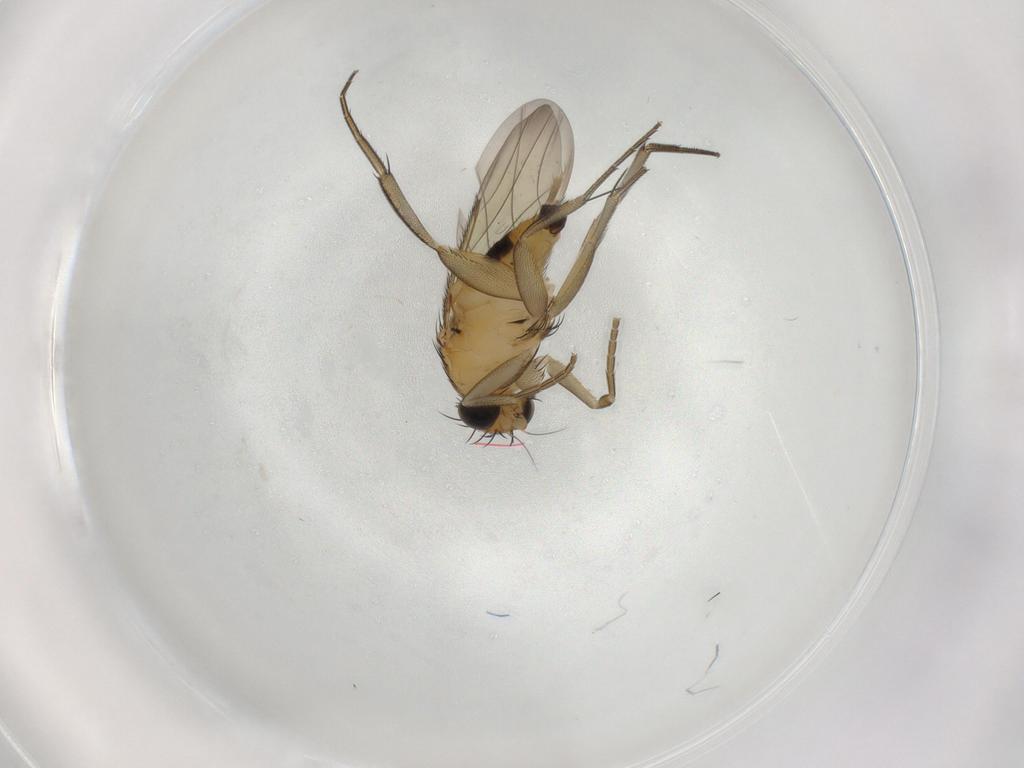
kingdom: Animalia
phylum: Arthropoda
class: Insecta
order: Diptera
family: Phoridae
